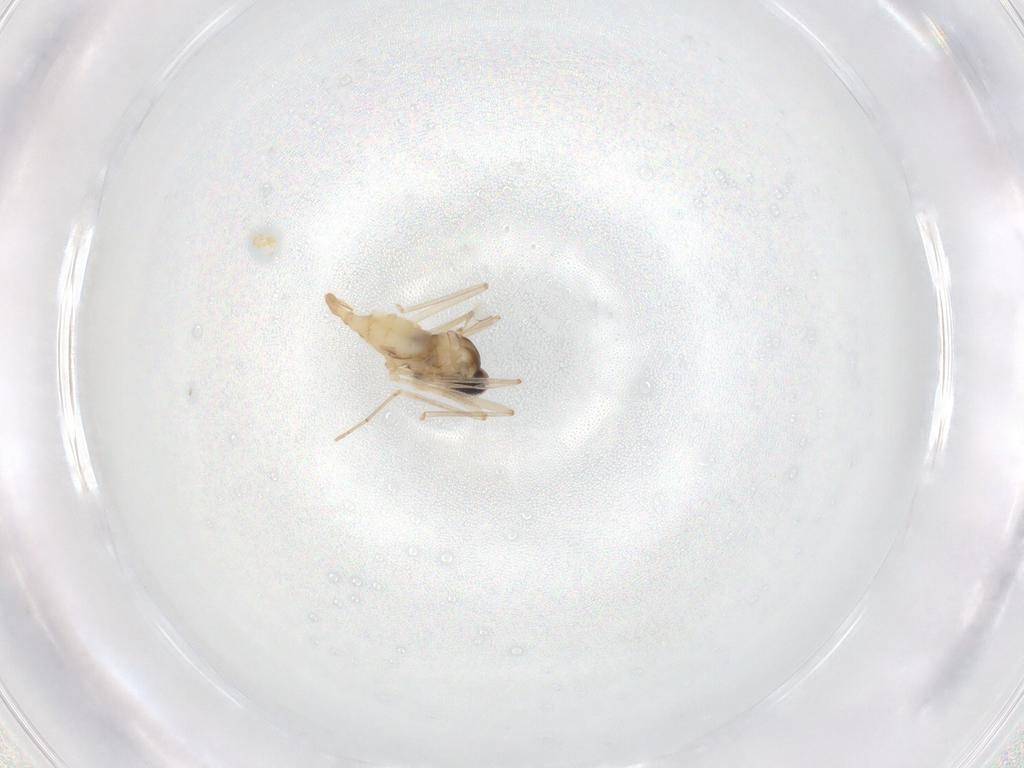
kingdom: Animalia
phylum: Arthropoda
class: Insecta
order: Diptera
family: Cecidomyiidae
